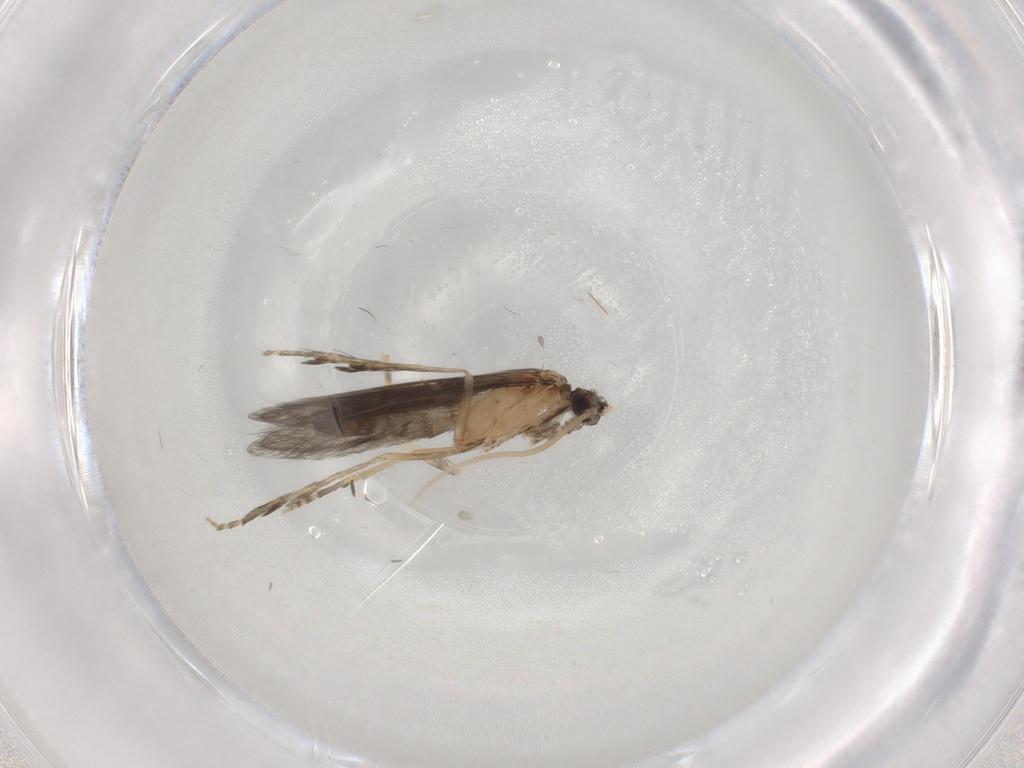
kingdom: Animalia
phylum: Arthropoda
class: Insecta
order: Trichoptera
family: Hydroptilidae
